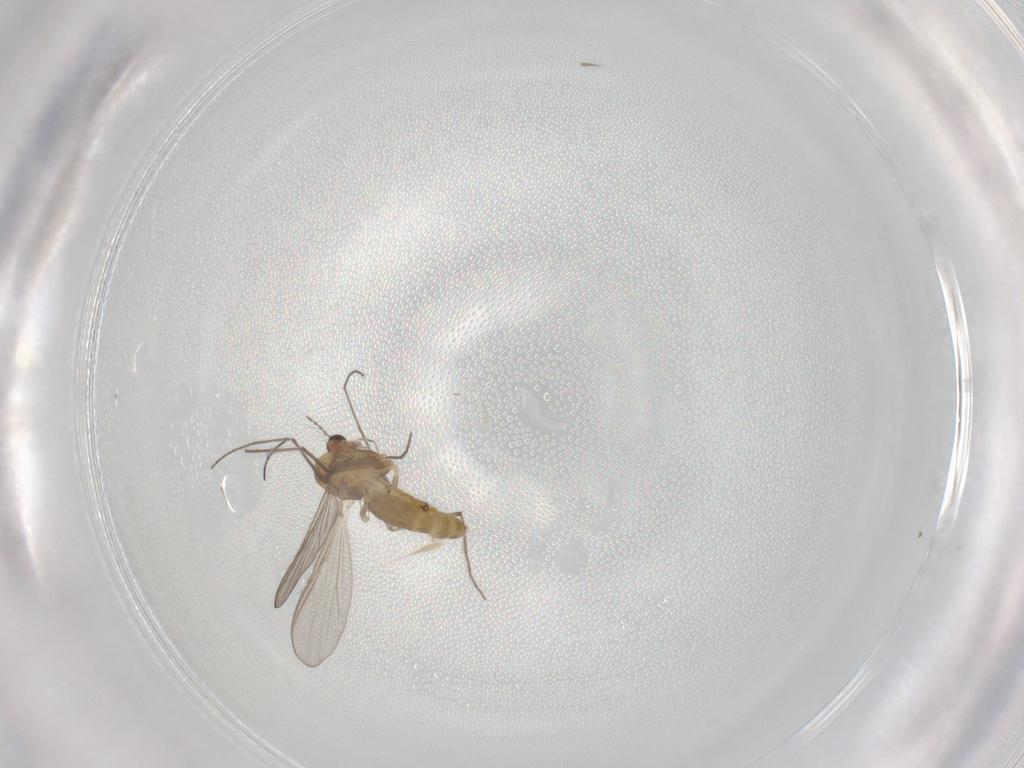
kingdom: Animalia
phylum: Arthropoda
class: Insecta
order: Diptera
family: Chironomidae
